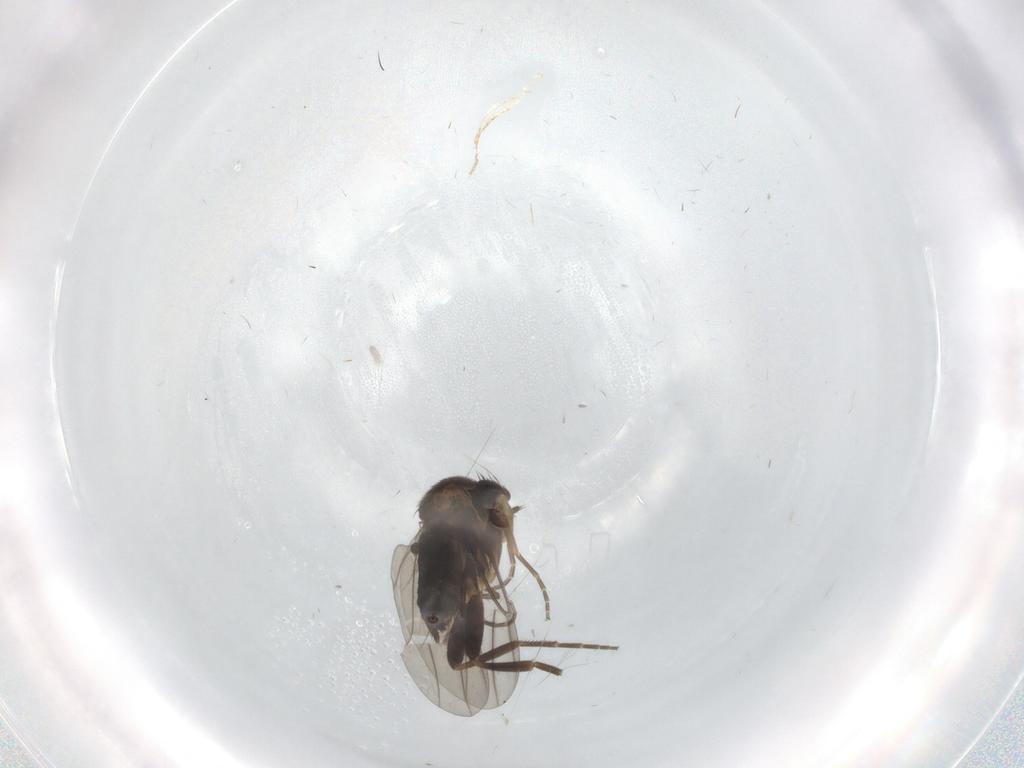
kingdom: Animalia
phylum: Arthropoda
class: Insecta
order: Diptera
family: Phoridae
